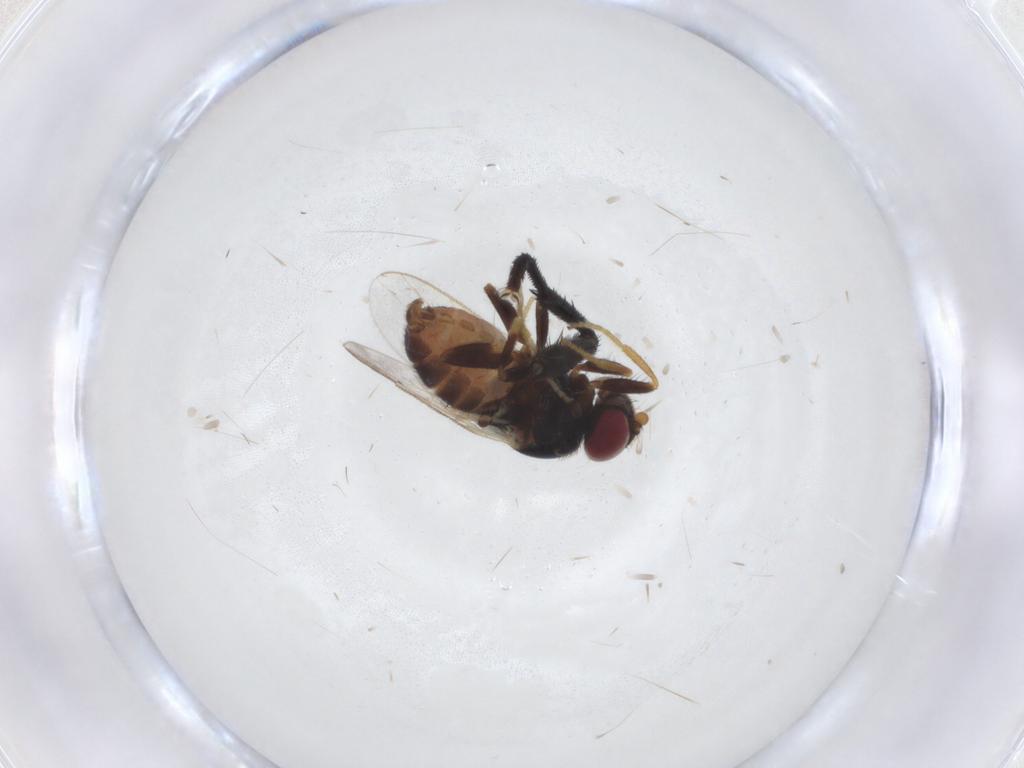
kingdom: Animalia
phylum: Arthropoda
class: Insecta
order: Diptera
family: Chloropidae
